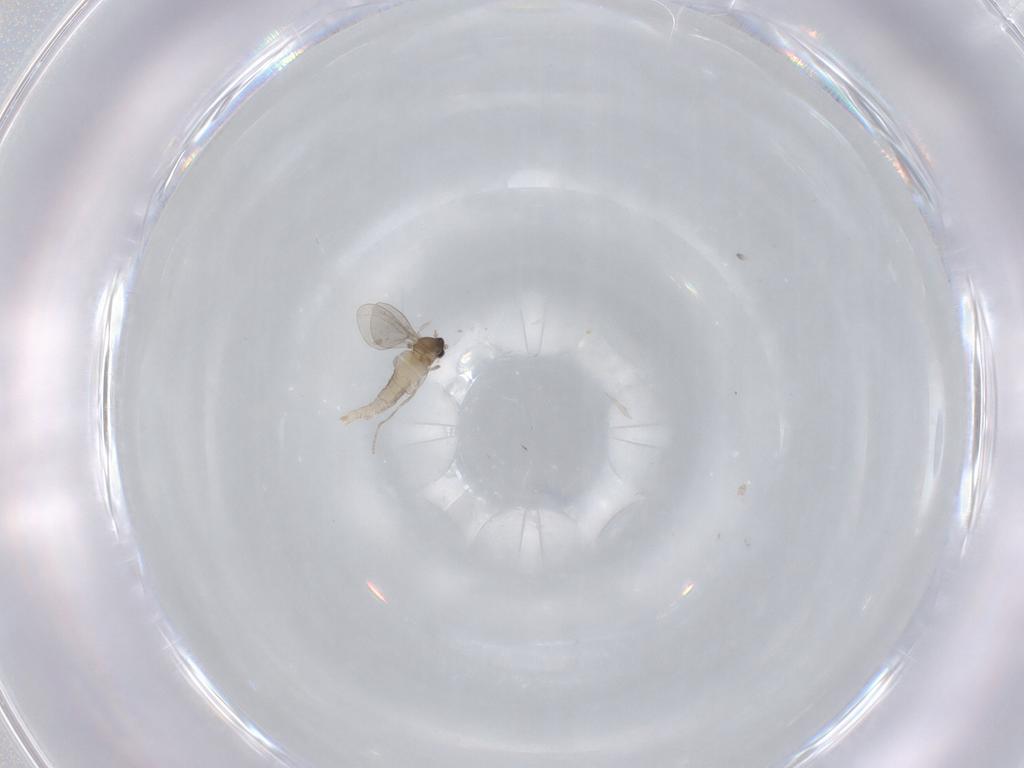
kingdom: Animalia
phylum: Arthropoda
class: Insecta
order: Diptera
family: Cecidomyiidae
